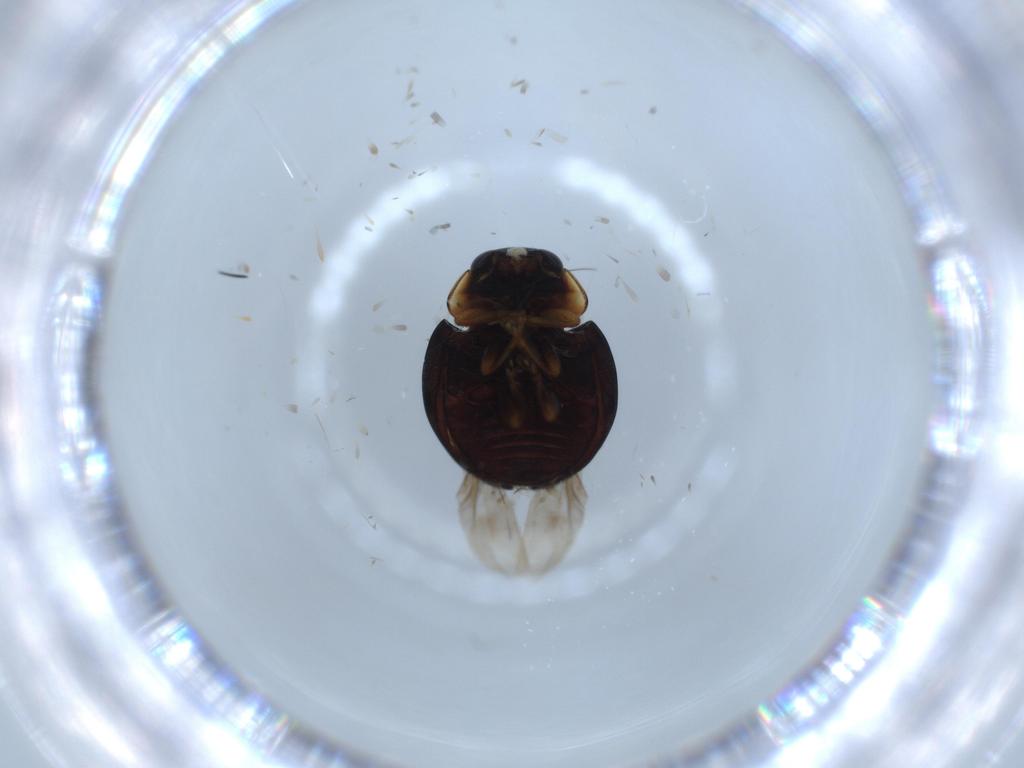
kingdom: Animalia
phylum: Arthropoda
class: Insecta
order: Coleoptera
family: Coccinellidae
